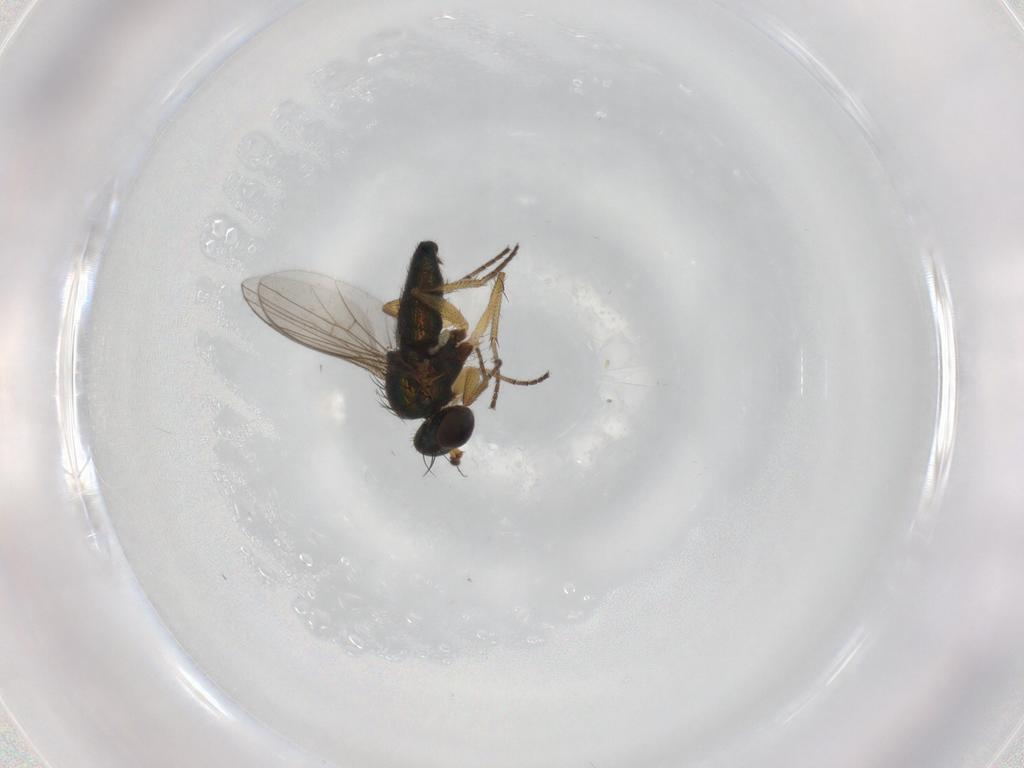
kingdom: Animalia
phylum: Arthropoda
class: Insecta
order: Diptera
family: Dolichopodidae
